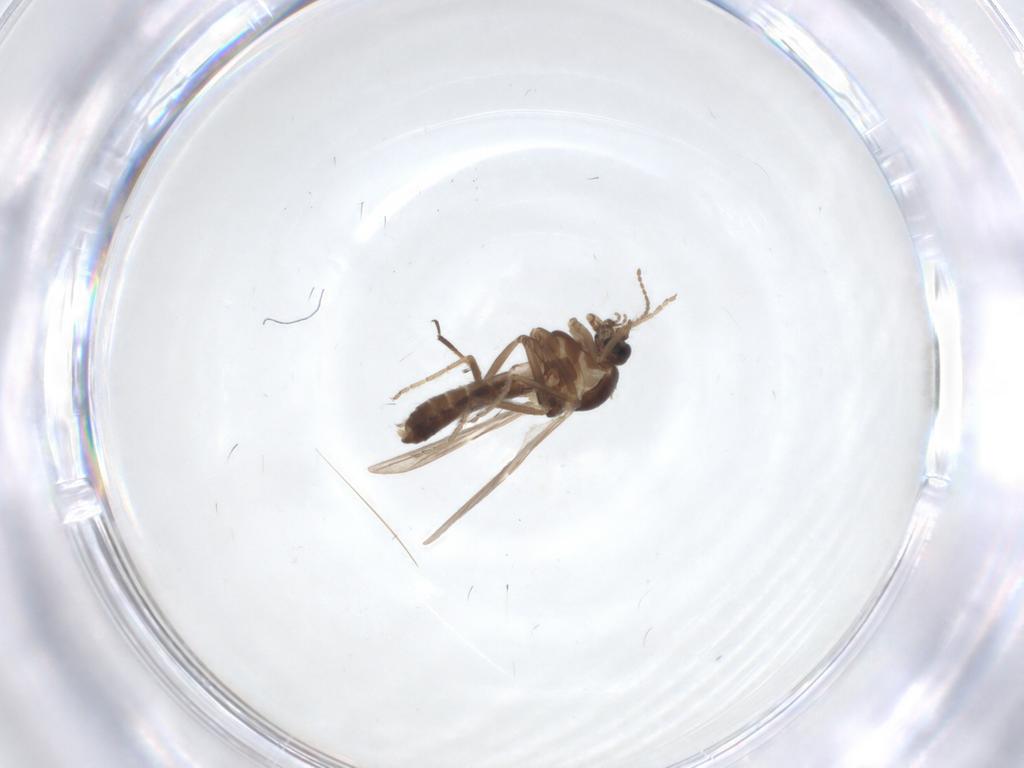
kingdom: Animalia
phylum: Arthropoda
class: Insecta
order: Diptera
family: Ceratopogonidae
